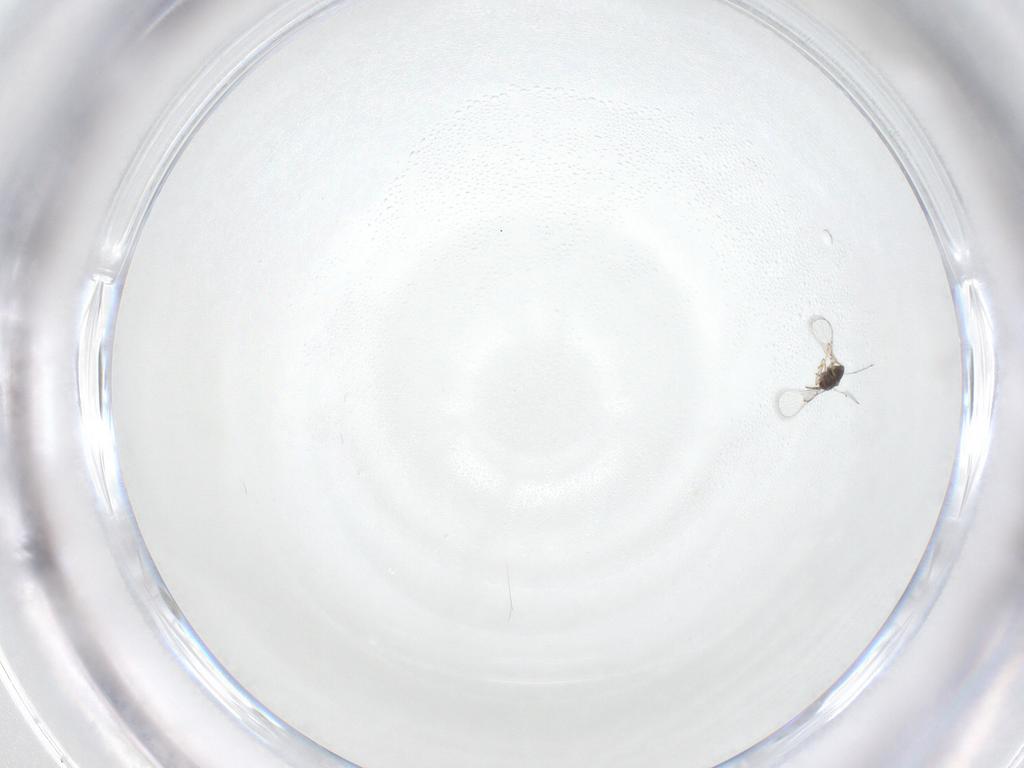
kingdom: Animalia
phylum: Arthropoda
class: Insecta
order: Hymenoptera
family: Trichogrammatidae
